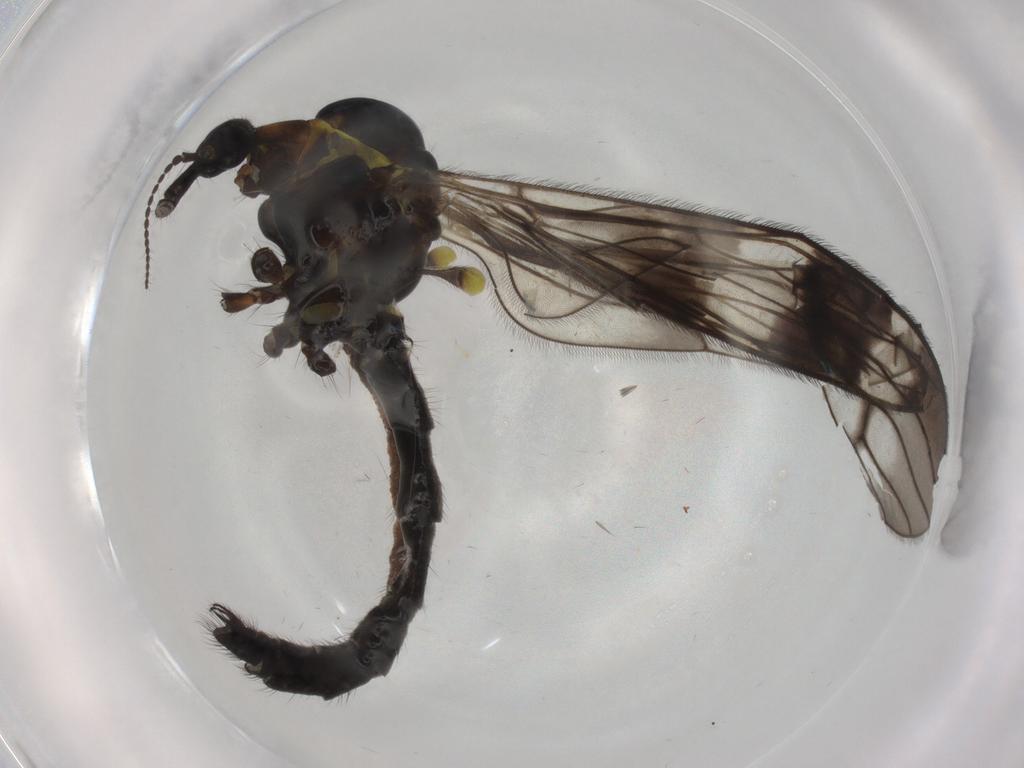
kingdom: Animalia
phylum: Arthropoda
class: Insecta
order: Diptera
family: Limoniidae
